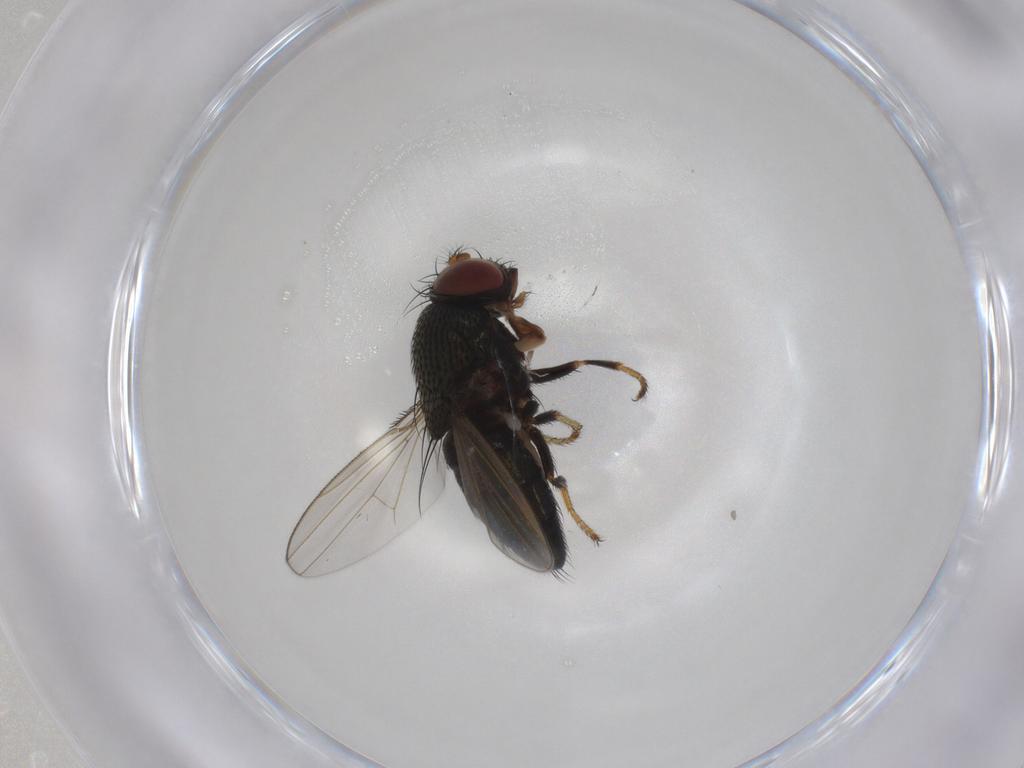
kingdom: Animalia
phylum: Arthropoda
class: Insecta
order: Diptera
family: Ephydridae
